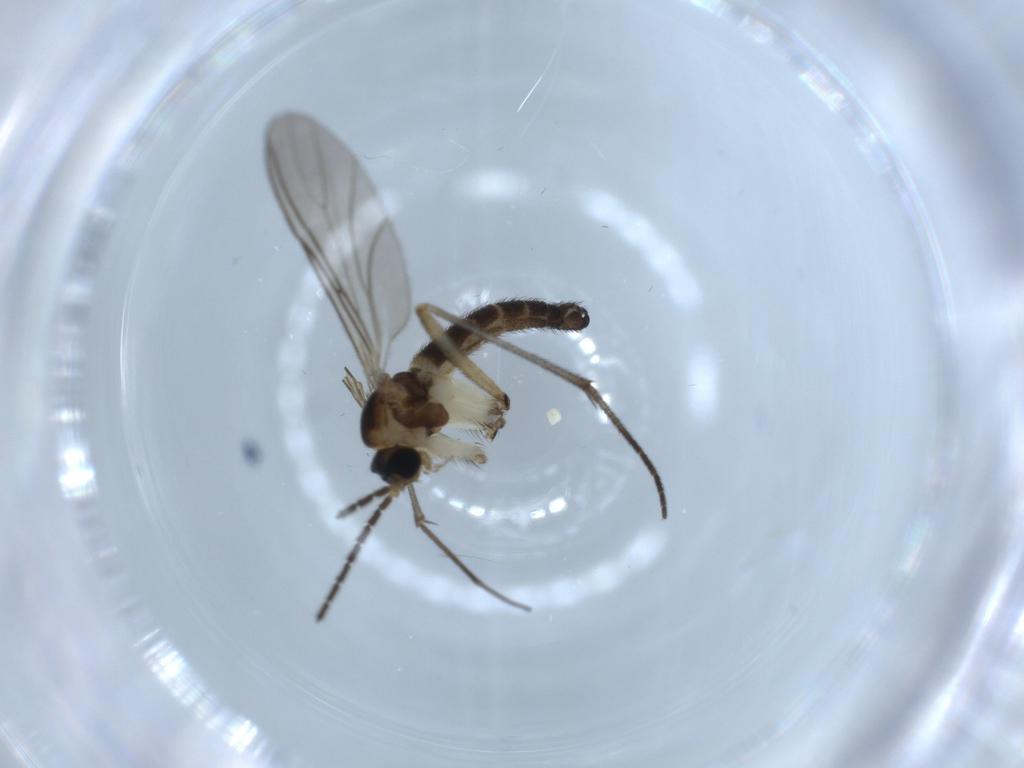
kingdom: Animalia
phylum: Arthropoda
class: Insecta
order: Diptera
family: Sciaridae
